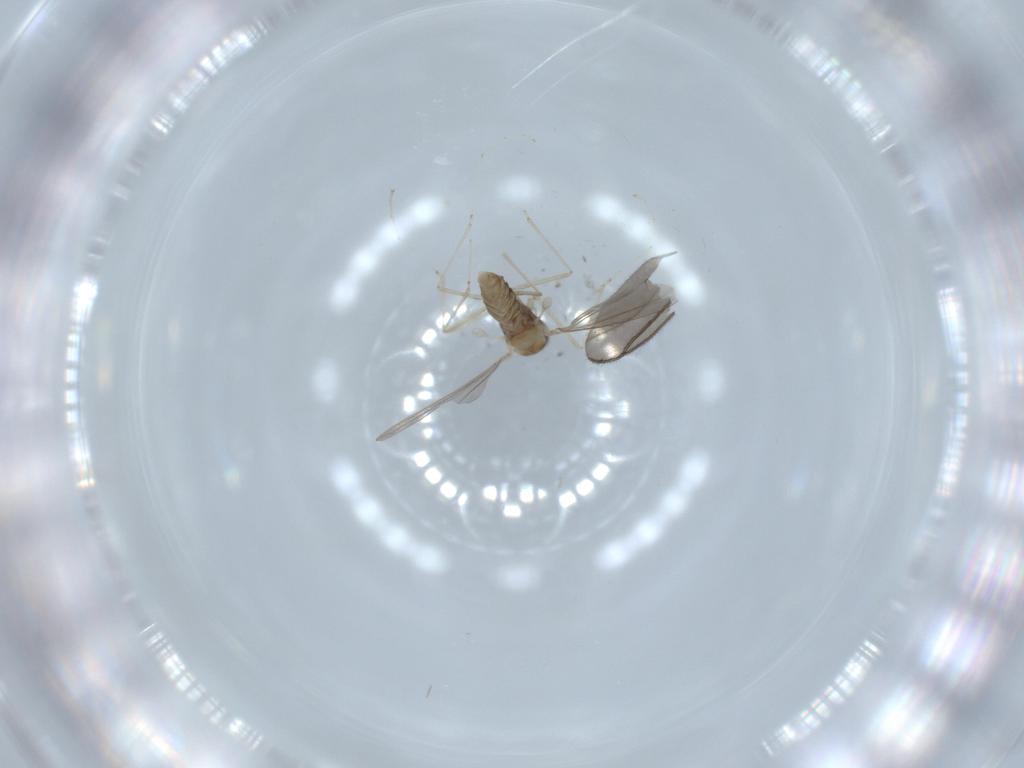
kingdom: Animalia
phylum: Arthropoda
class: Insecta
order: Diptera
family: Cecidomyiidae
